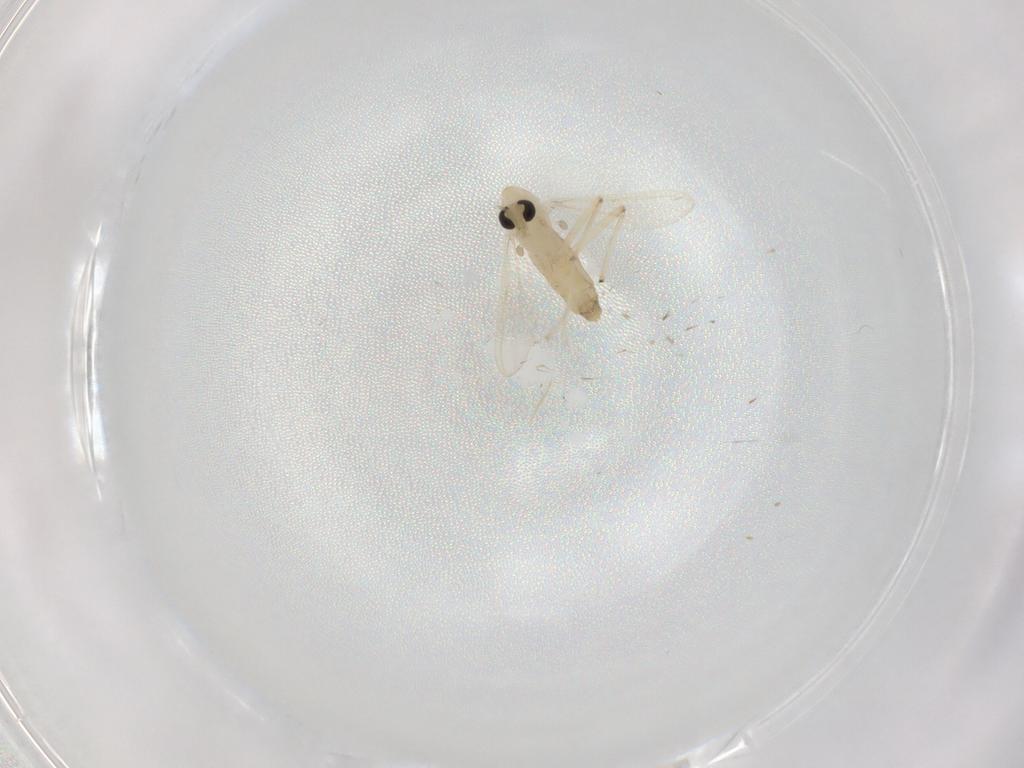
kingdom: Animalia
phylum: Arthropoda
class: Insecta
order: Diptera
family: Chironomidae
